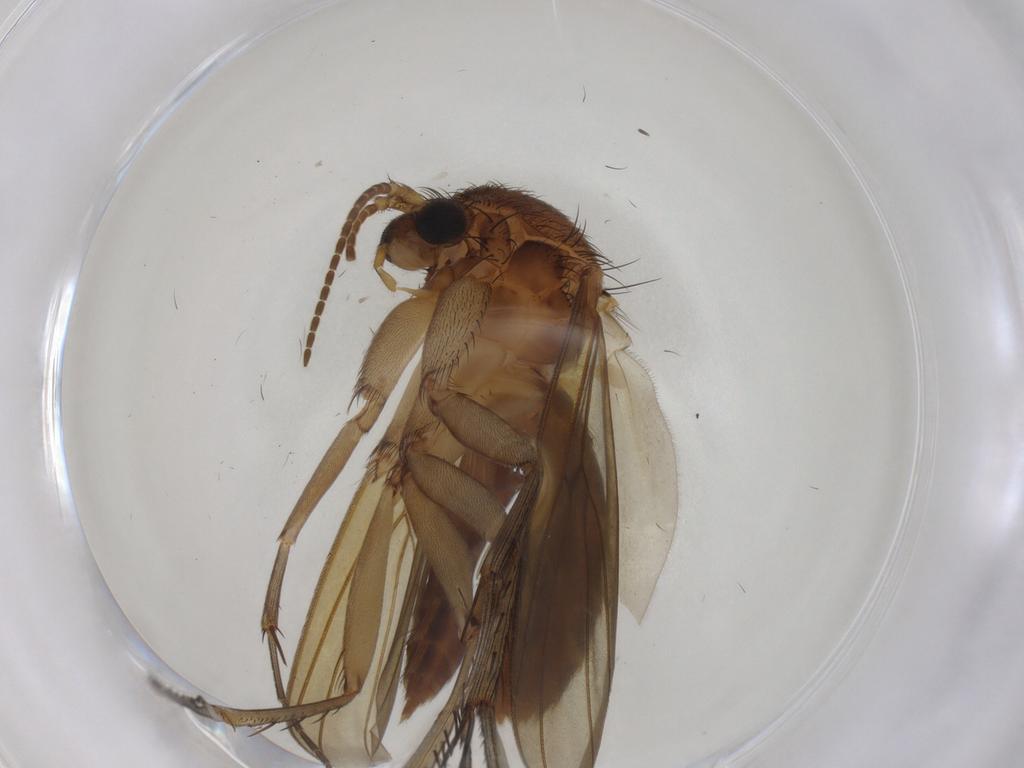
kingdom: Animalia
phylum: Arthropoda
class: Insecta
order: Diptera
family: Mycetophilidae
